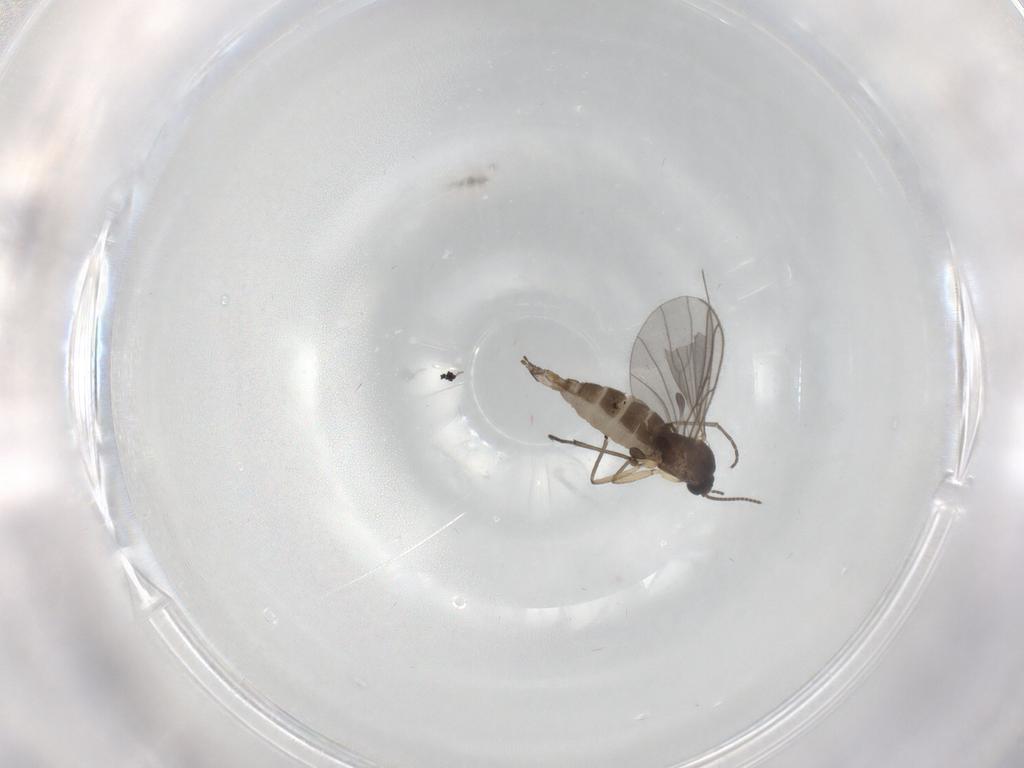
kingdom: Animalia
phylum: Arthropoda
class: Insecta
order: Diptera
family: Sciaridae
